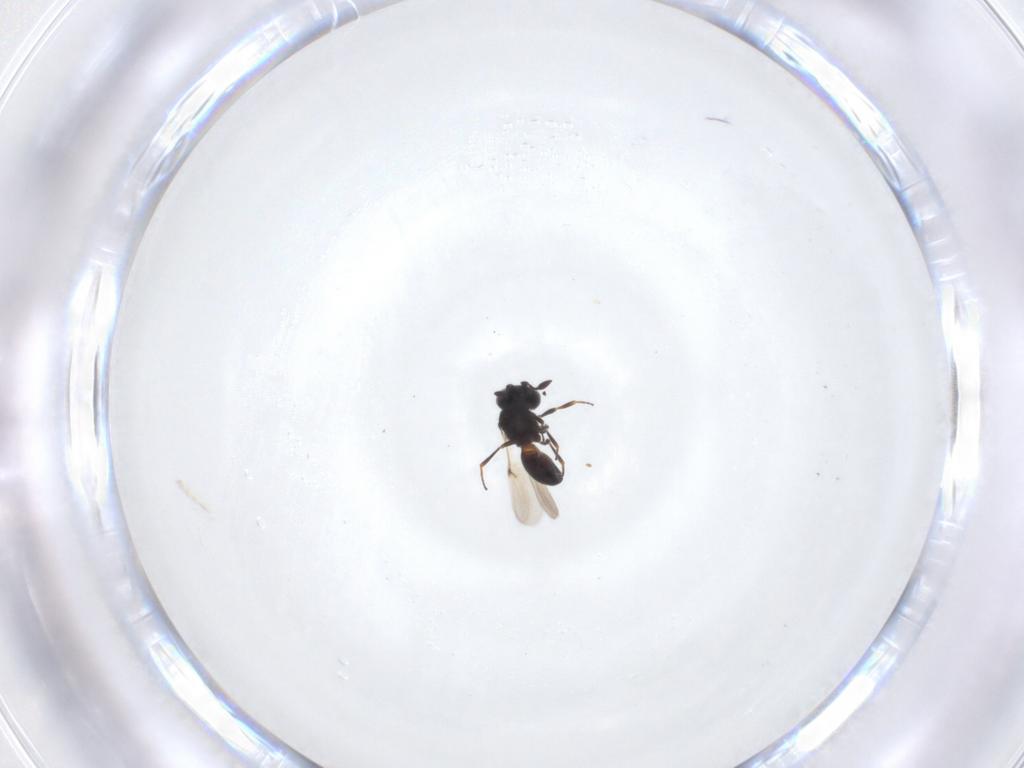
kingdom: Animalia
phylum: Arthropoda
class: Insecta
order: Hymenoptera
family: Scelionidae
